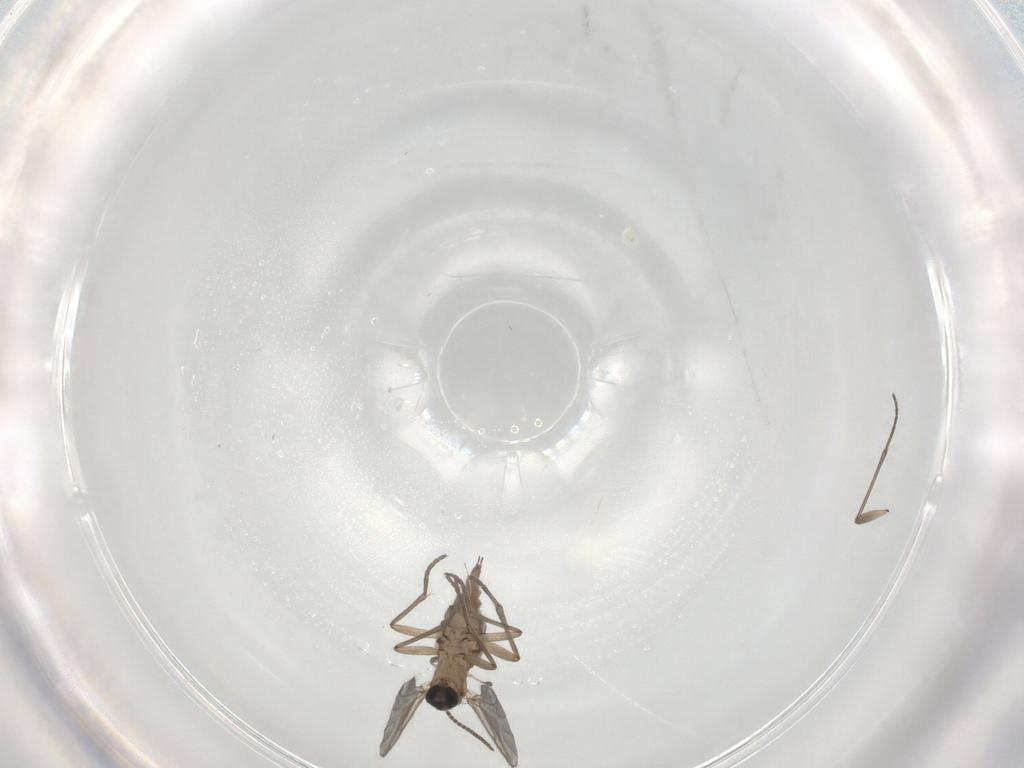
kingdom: Animalia
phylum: Arthropoda
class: Insecta
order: Diptera
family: Sciaridae
